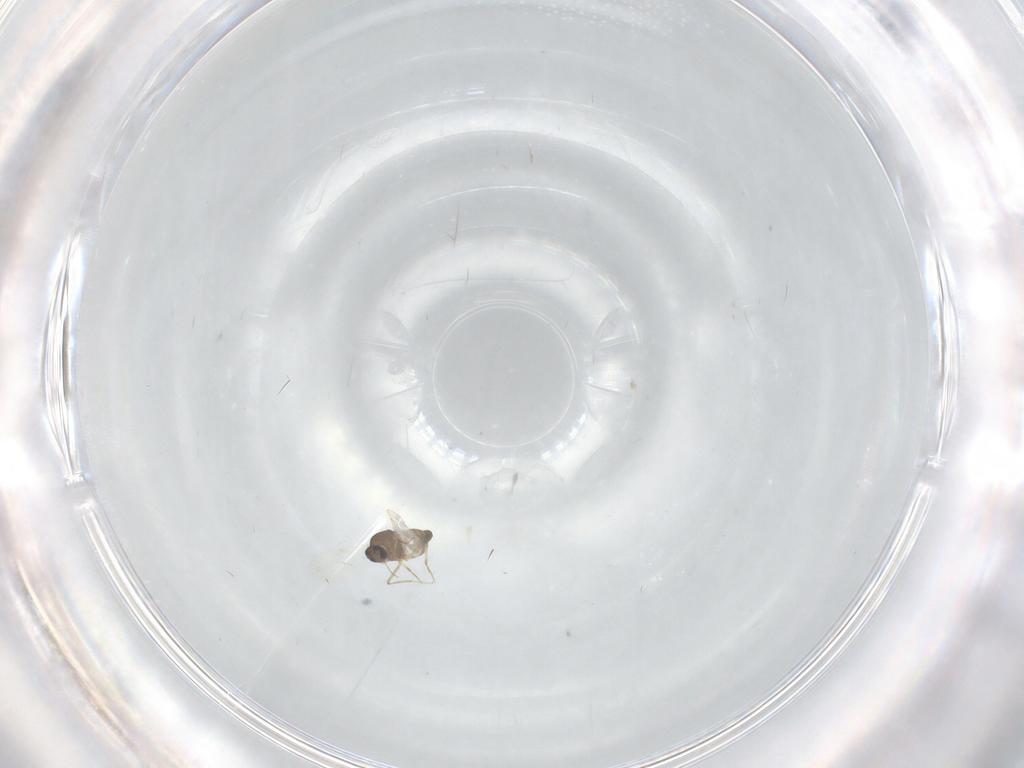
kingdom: Animalia
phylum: Arthropoda
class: Insecta
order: Diptera
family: Ceratopogonidae
